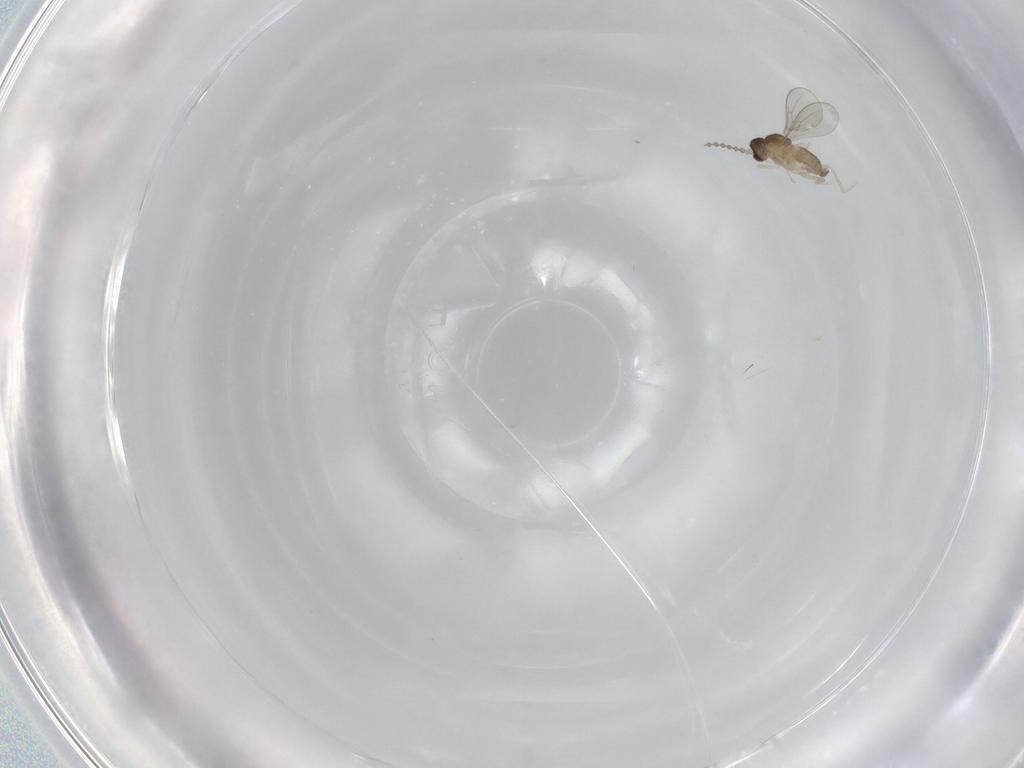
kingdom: Animalia
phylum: Arthropoda
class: Insecta
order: Diptera
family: Cecidomyiidae
